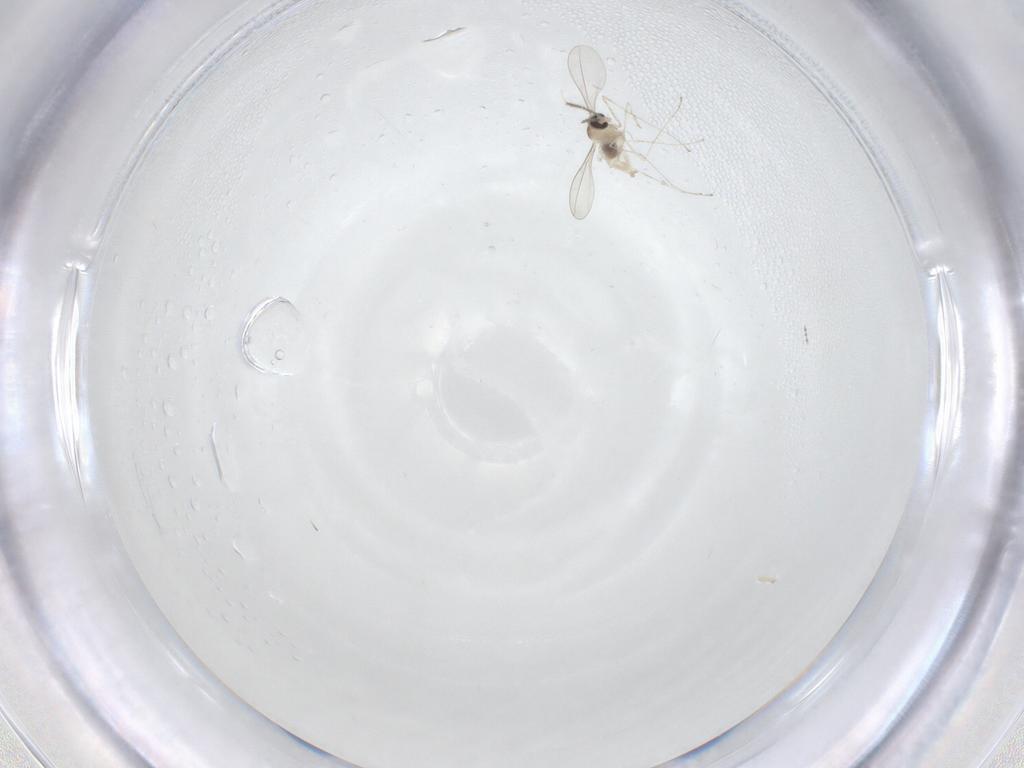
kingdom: Animalia
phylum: Arthropoda
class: Insecta
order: Diptera
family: Cecidomyiidae
